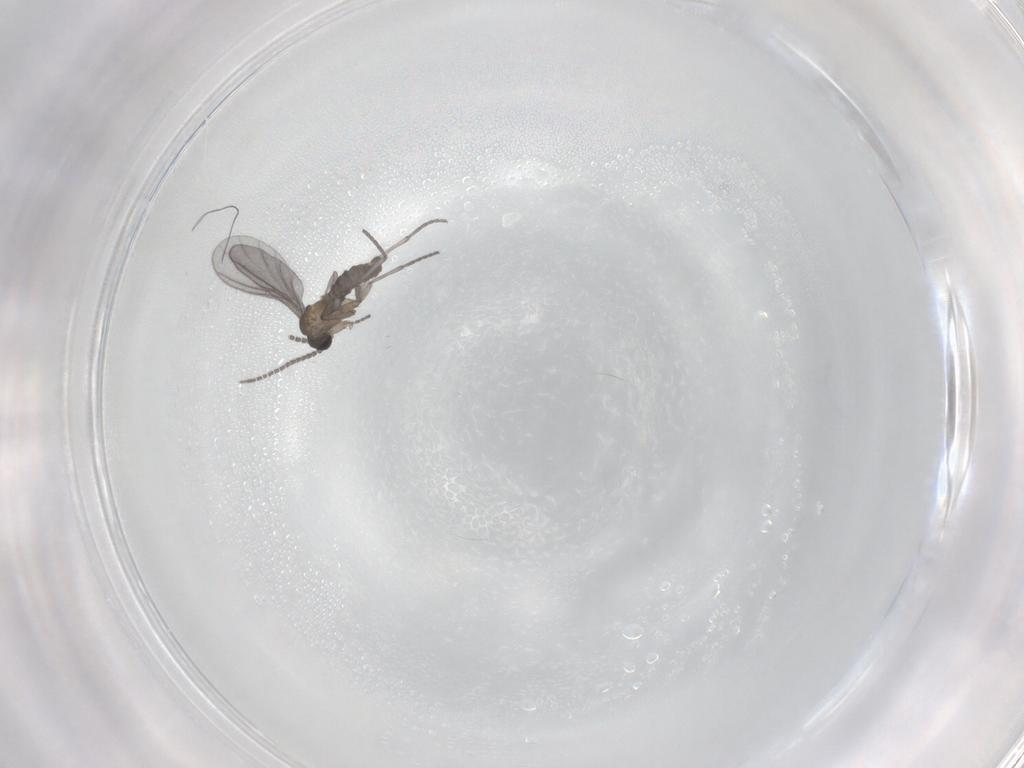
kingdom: Animalia
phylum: Arthropoda
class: Insecta
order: Diptera
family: Sciaridae
